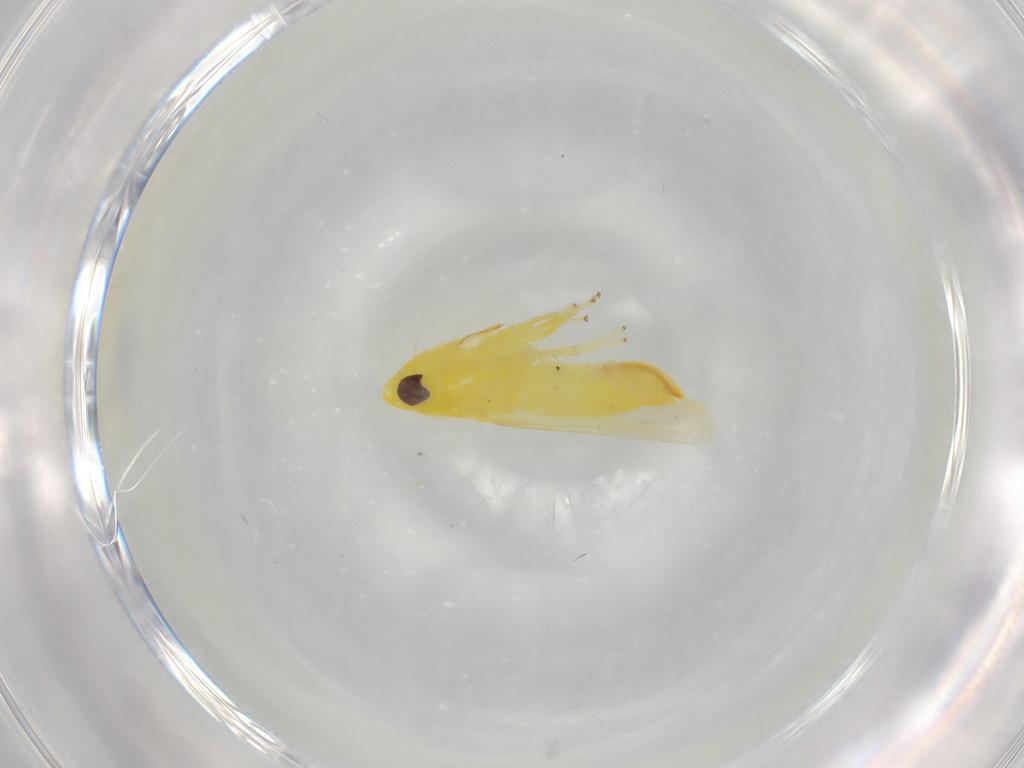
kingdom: Animalia
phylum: Arthropoda
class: Insecta
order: Hemiptera
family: Cicadellidae
